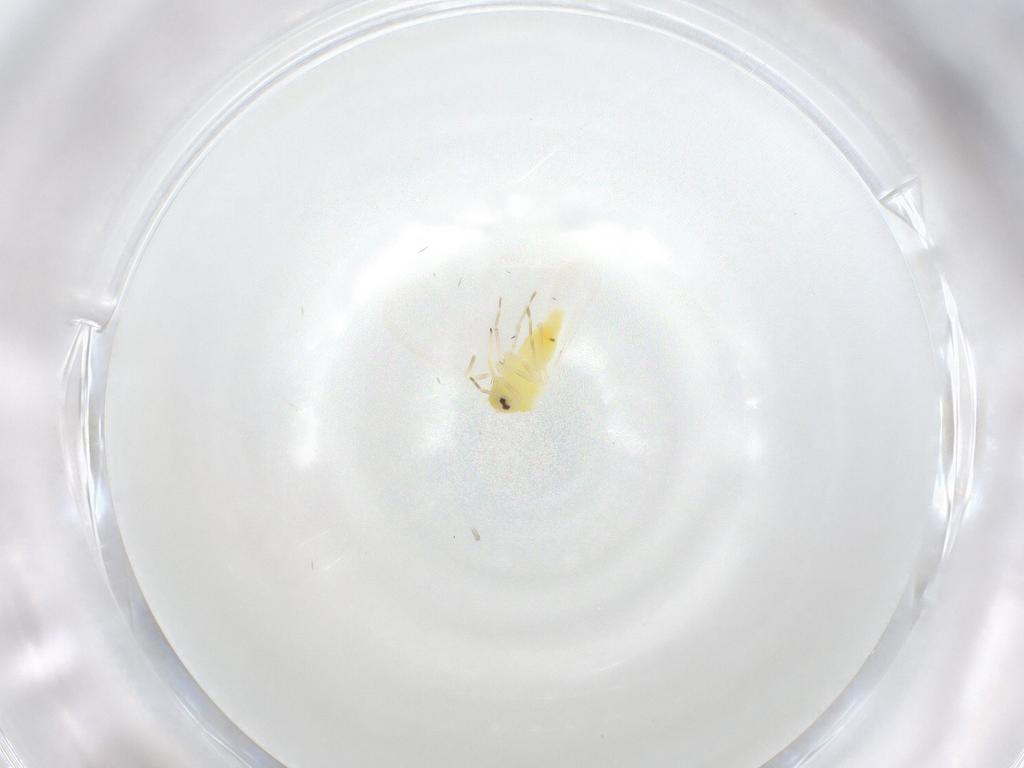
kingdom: Animalia
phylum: Arthropoda
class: Insecta
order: Hemiptera
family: Aleyrodidae
